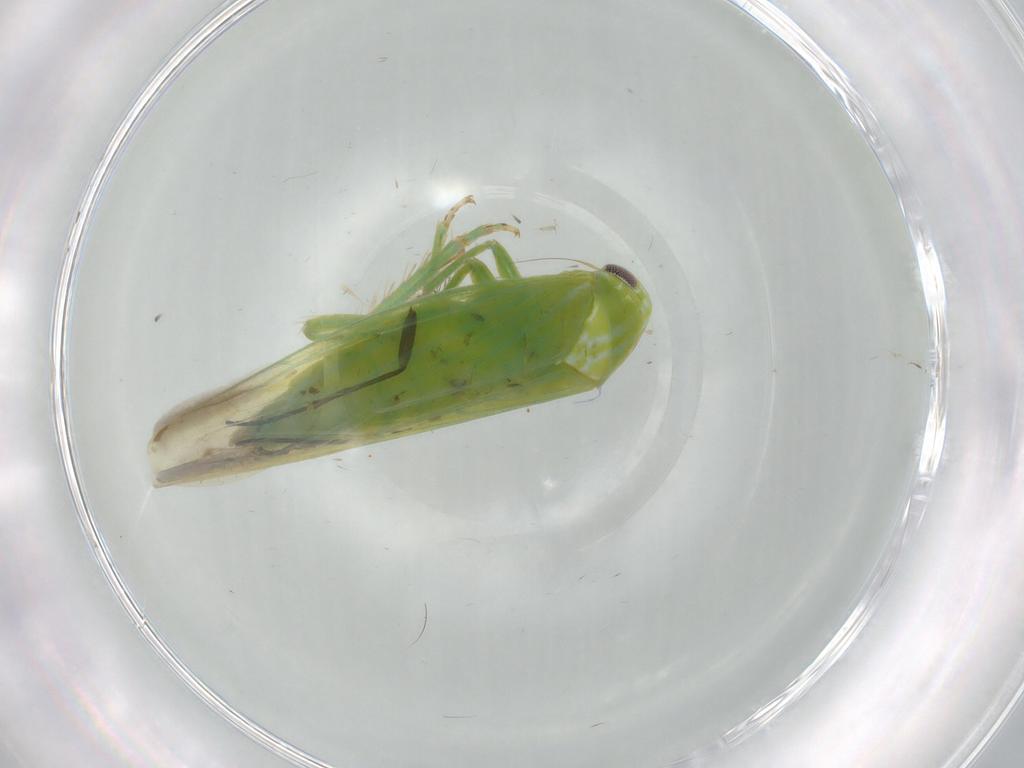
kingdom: Animalia
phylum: Arthropoda
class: Insecta
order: Hemiptera
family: Cicadellidae
